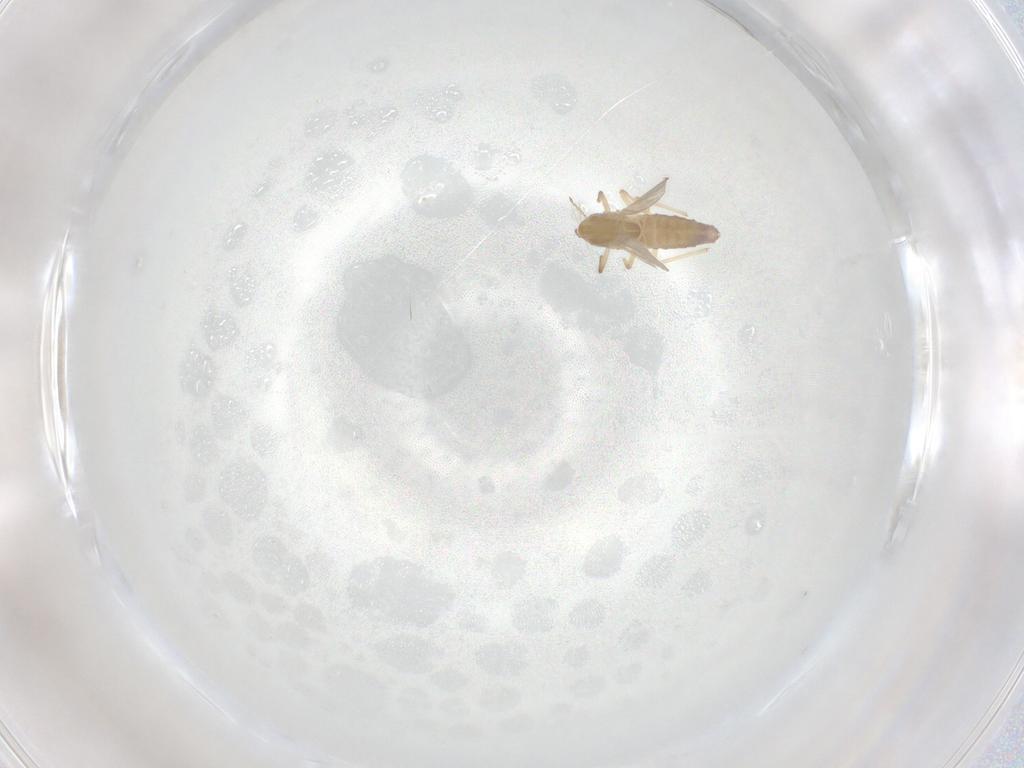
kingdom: Animalia
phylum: Arthropoda
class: Insecta
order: Diptera
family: Chironomidae
